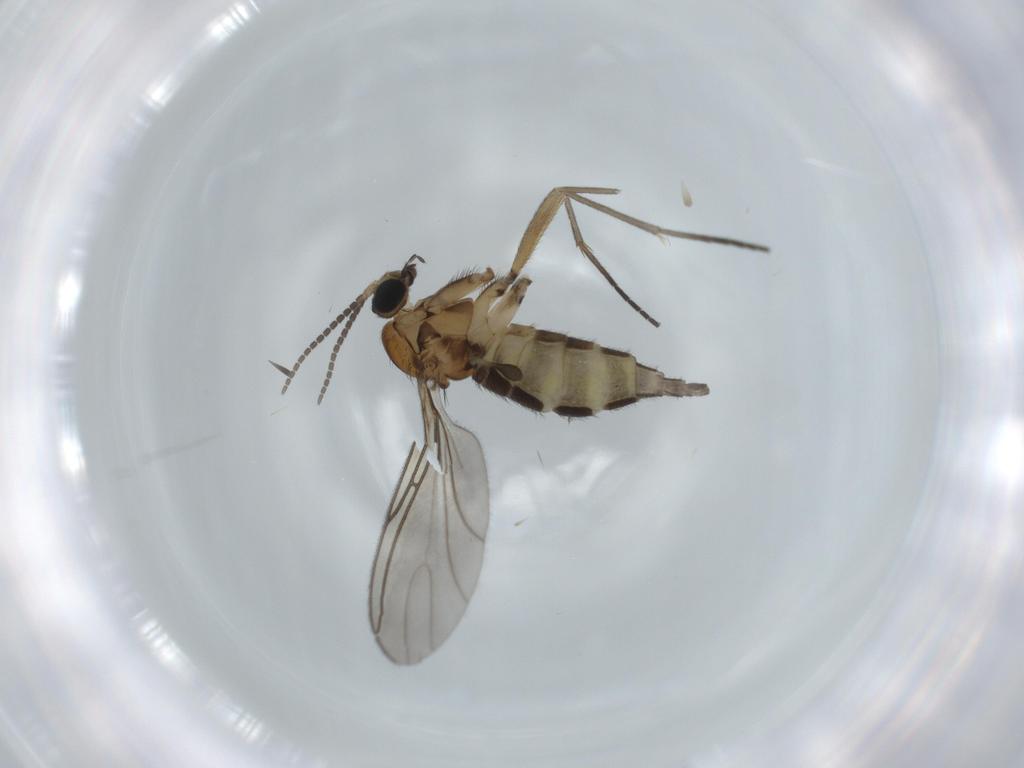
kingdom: Animalia
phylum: Arthropoda
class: Insecta
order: Diptera
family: Sciaridae
